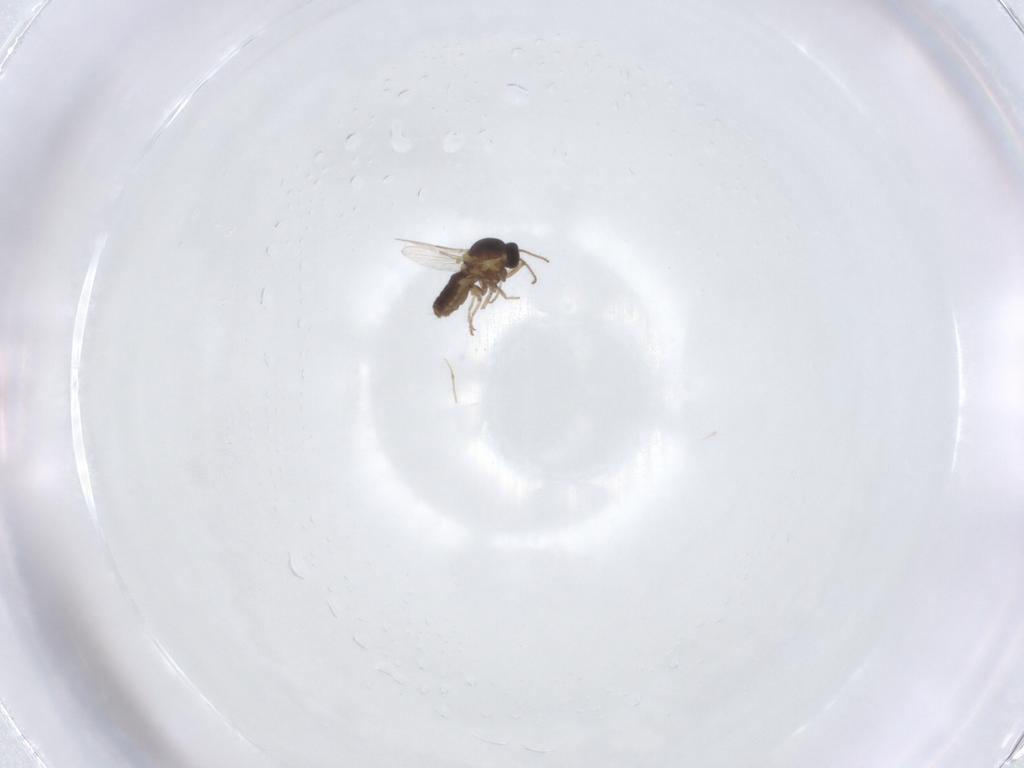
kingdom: Animalia
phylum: Arthropoda
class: Insecta
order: Diptera
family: Ceratopogonidae
